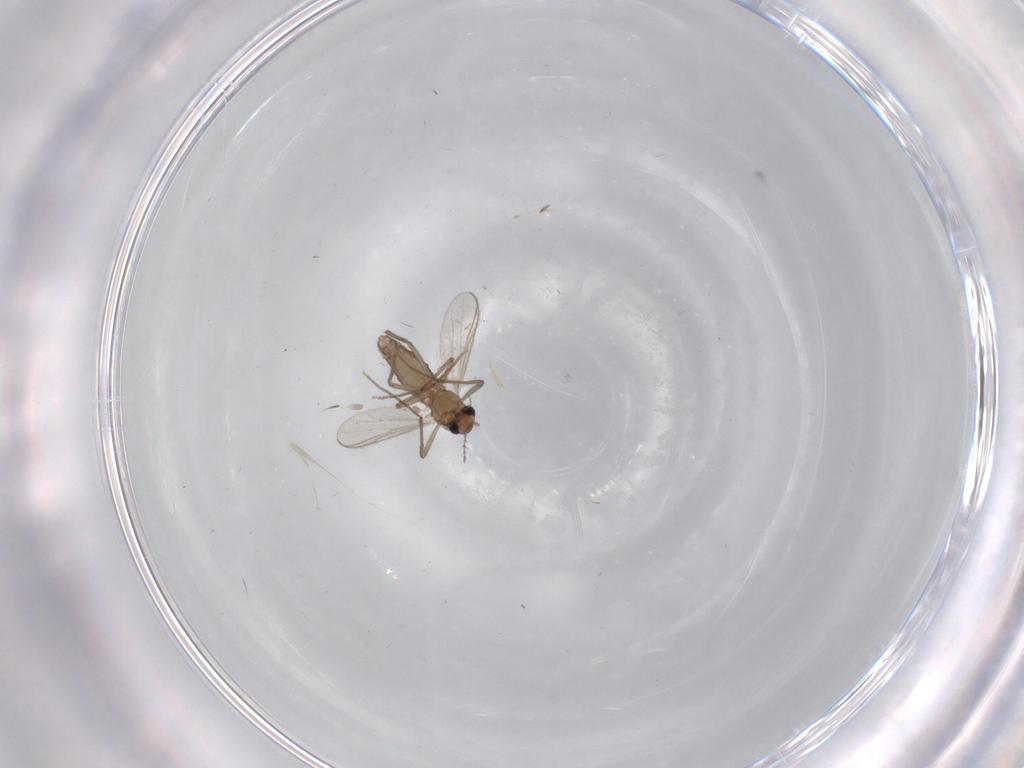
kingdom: Animalia
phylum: Arthropoda
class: Insecta
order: Diptera
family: Chironomidae
